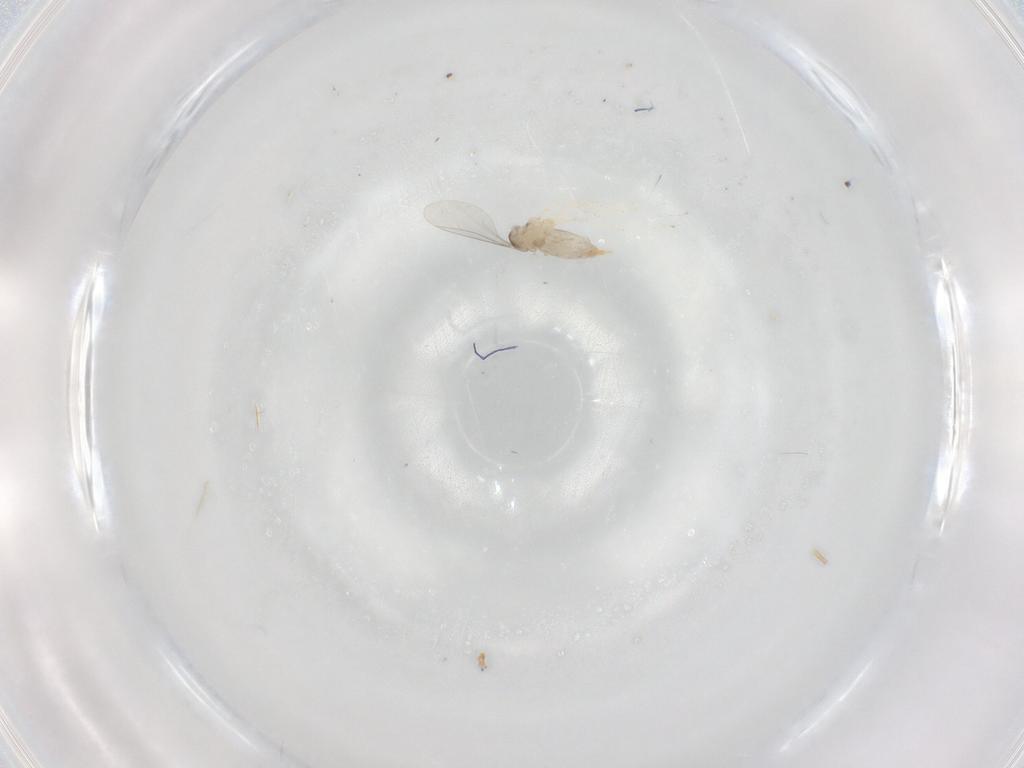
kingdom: Animalia
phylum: Arthropoda
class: Insecta
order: Diptera
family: Cecidomyiidae
